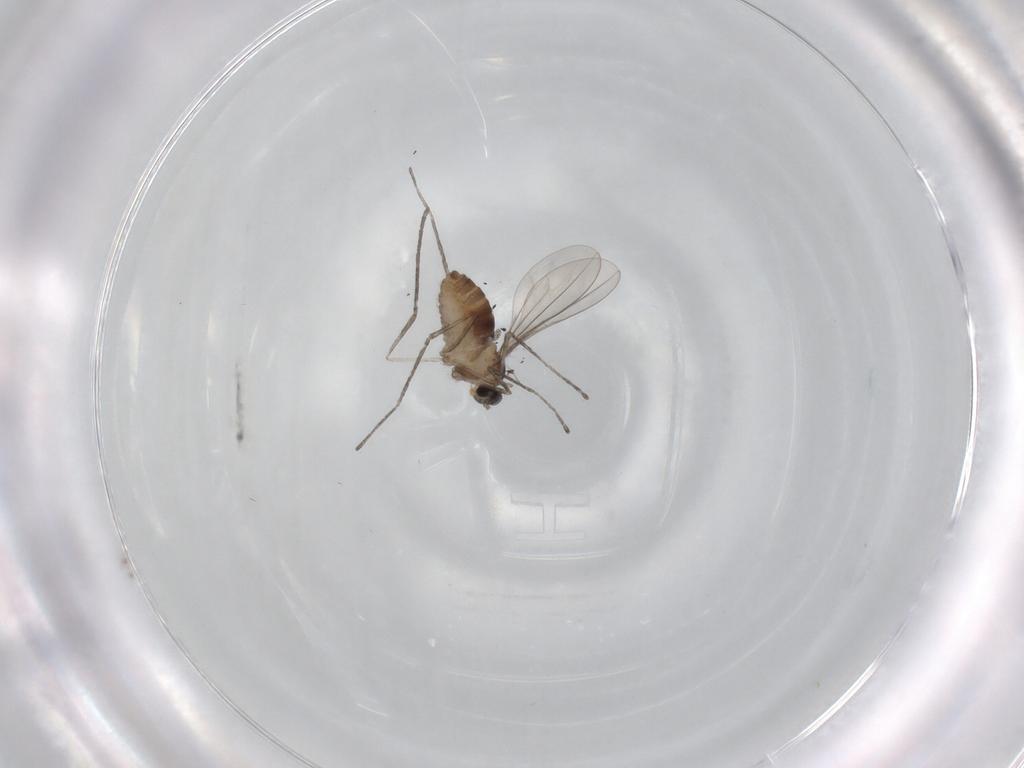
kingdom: Animalia
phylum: Arthropoda
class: Insecta
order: Diptera
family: Cecidomyiidae
